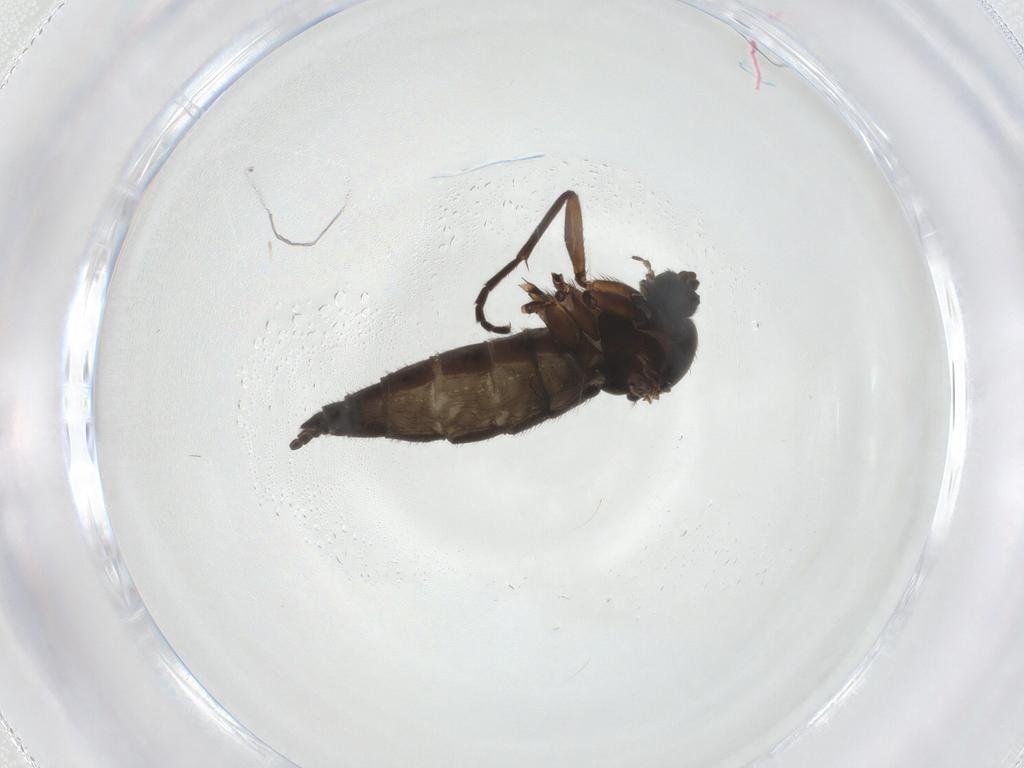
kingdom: Animalia
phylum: Arthropoda
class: Insecta
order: Diptera
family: Sciaridae
